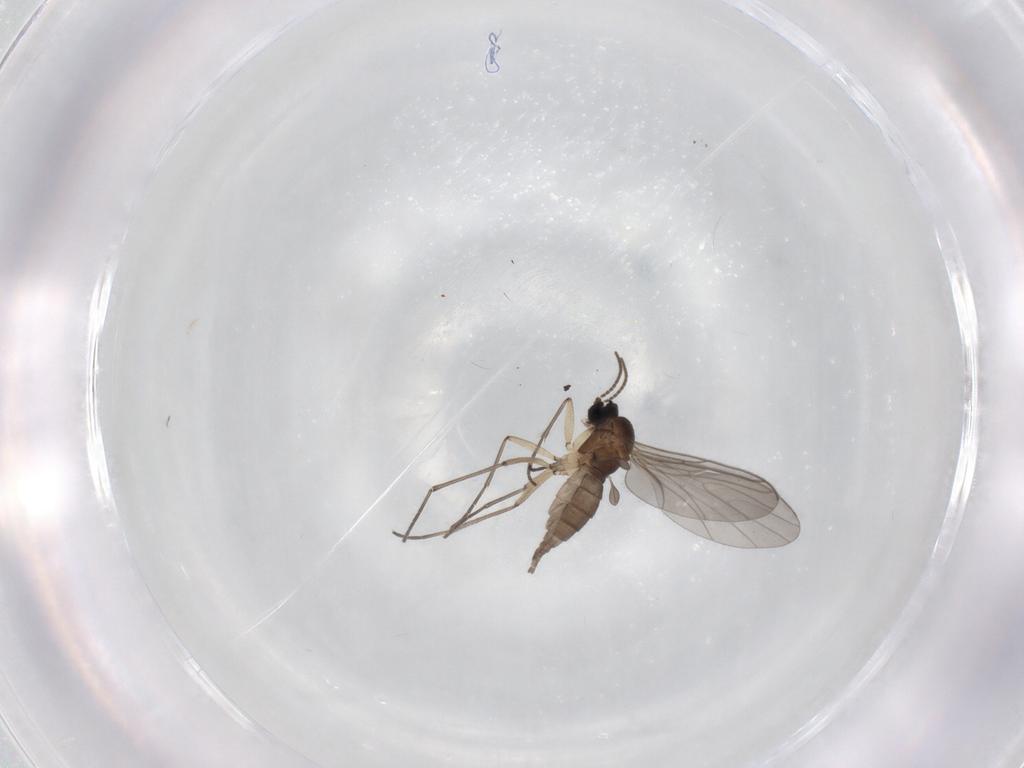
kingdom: Animalia
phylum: Arthropoda
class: Insecta
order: Diptera
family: Sciaridae
